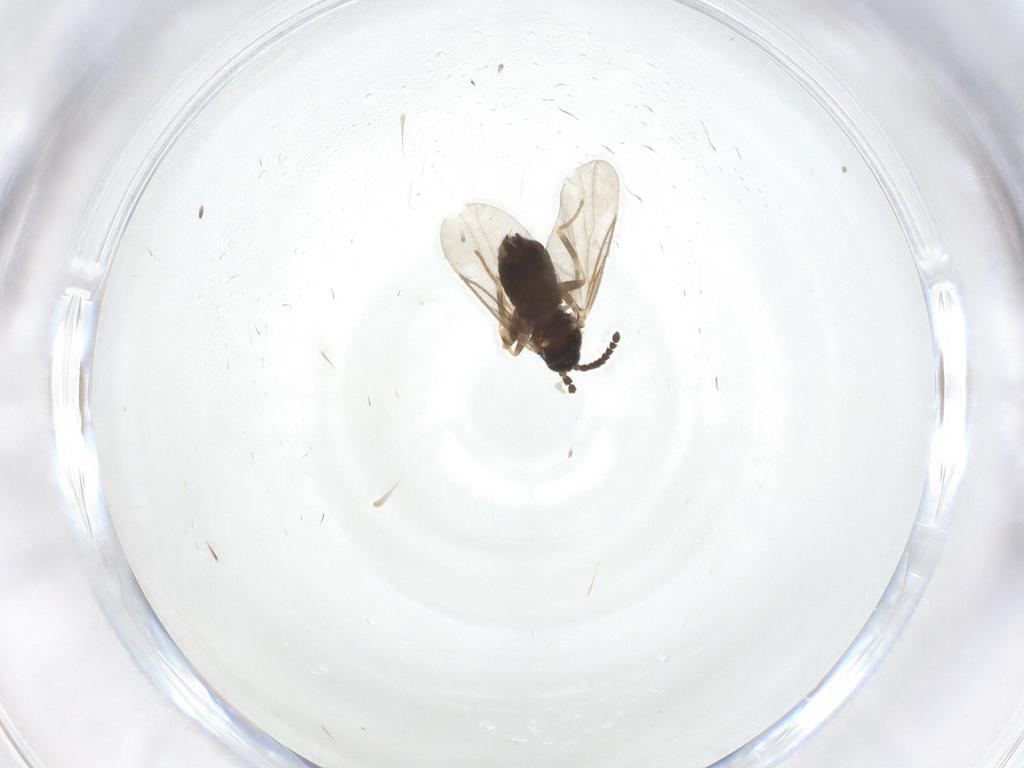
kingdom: Animalia
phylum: Arthropoda
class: Insecta
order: Diptera
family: Scatopsidae
